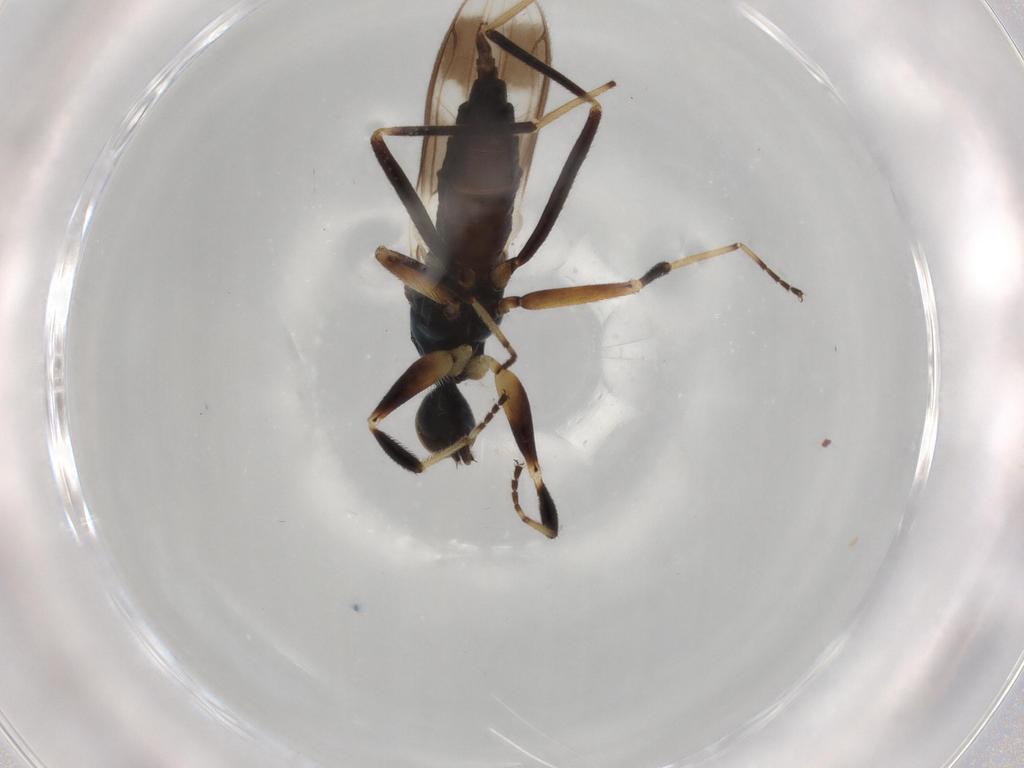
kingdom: Animalia
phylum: Arthropoda
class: Insecta
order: Diptera
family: Hybotidae
